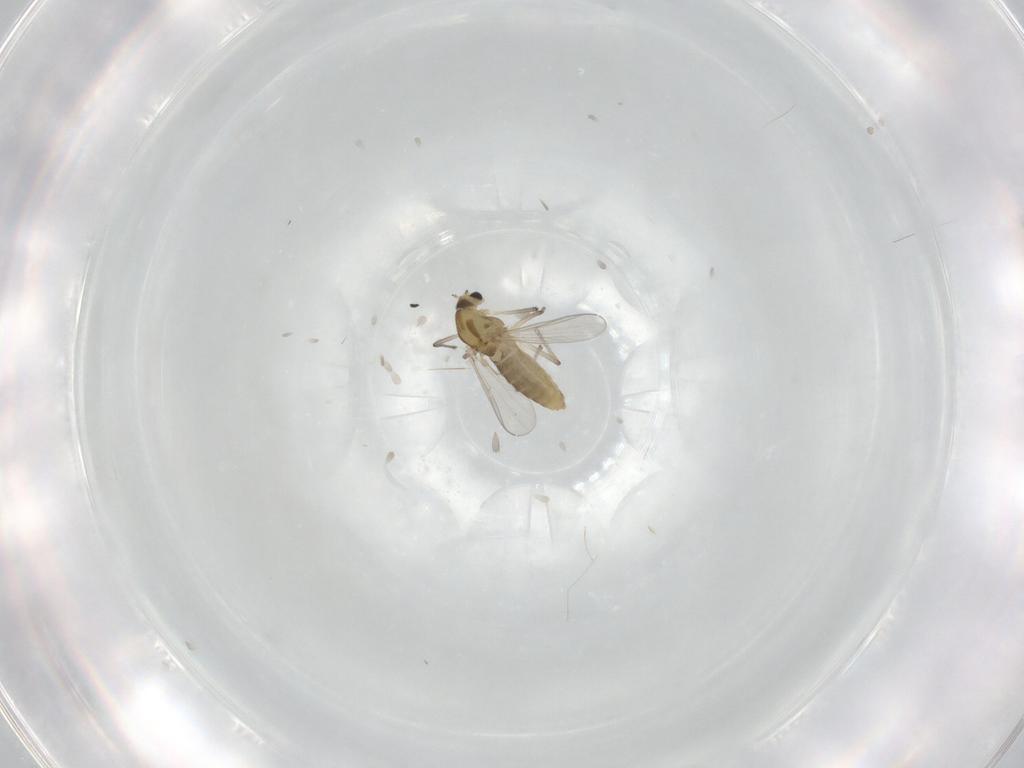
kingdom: Animalia
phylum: Arthropoda
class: Insecta
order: Diptera
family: Chironomidae
